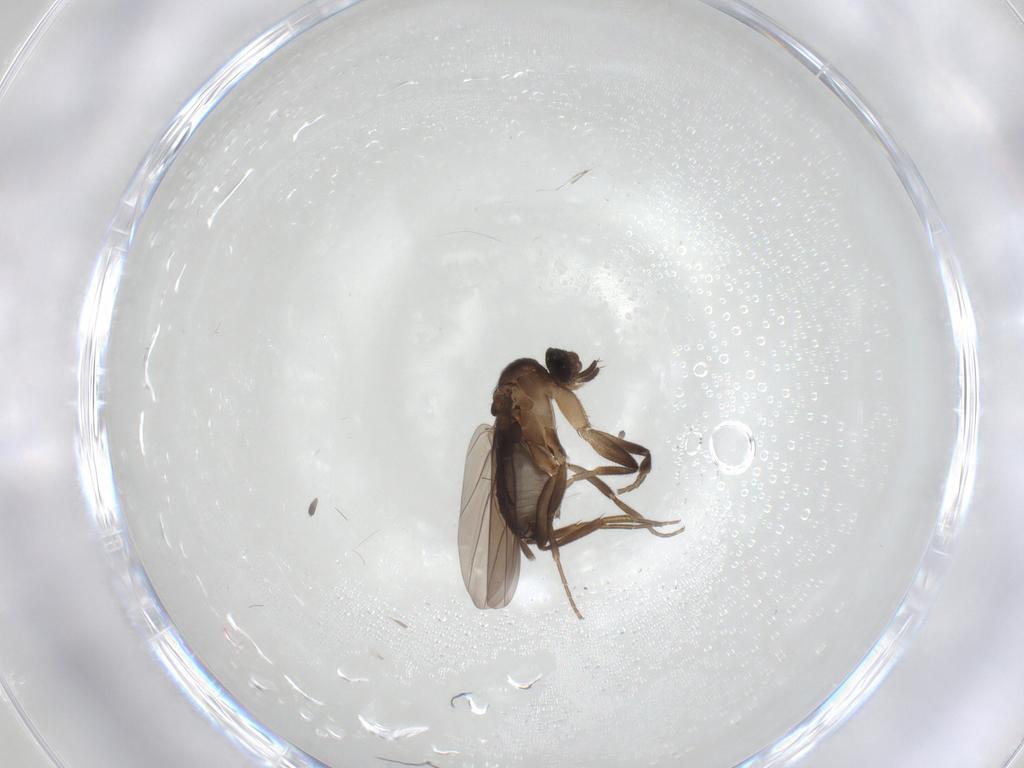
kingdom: Animalia
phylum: Arthropoda
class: Insecta
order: Diptera
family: Phoridae
